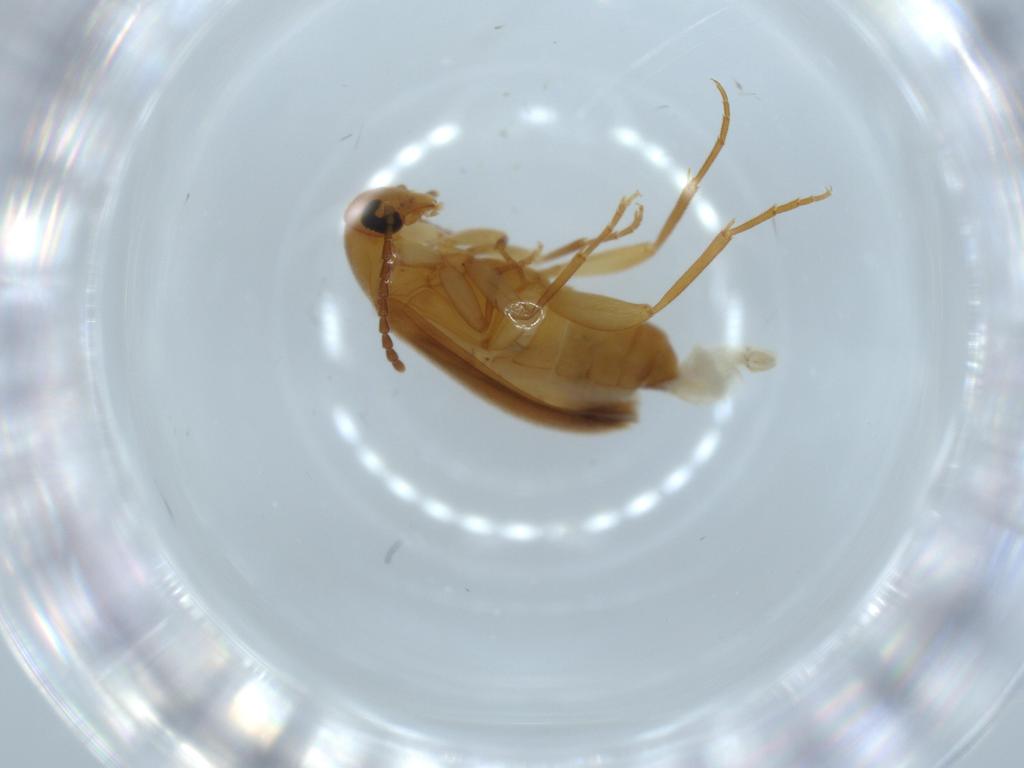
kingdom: Animalia
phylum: Arthropoda
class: Insecta
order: Coleoptera
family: Scraptiidae
